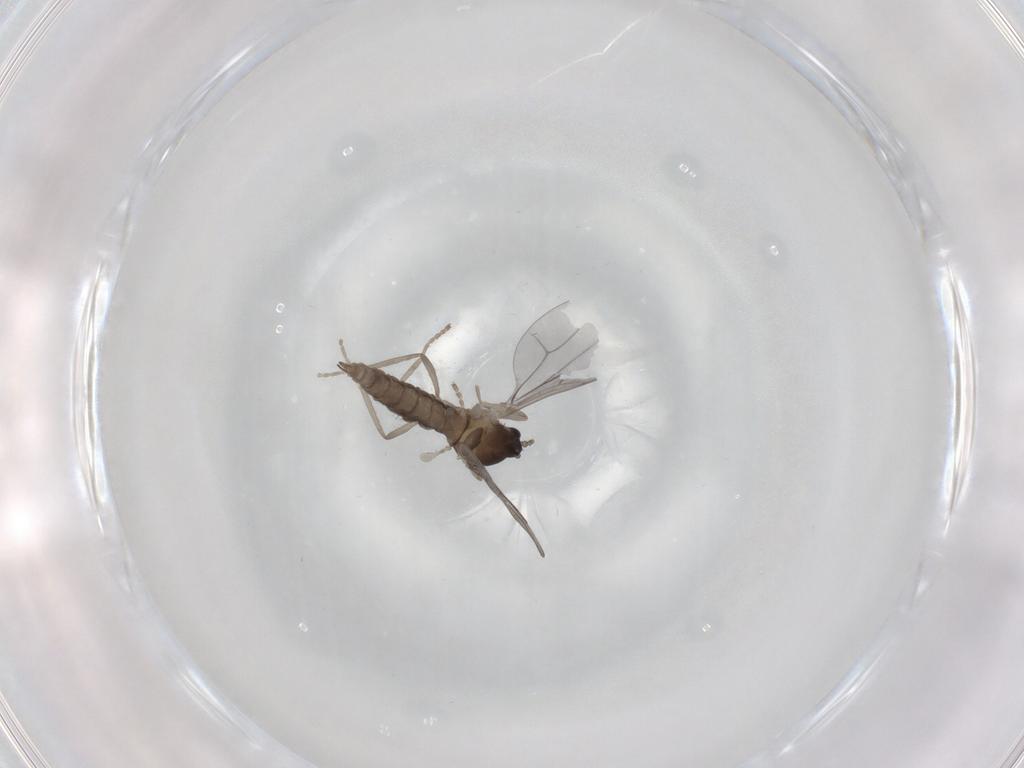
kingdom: Animalia
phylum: Arthropoda
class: Insecta
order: Diptera
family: Cecidomyiidae
